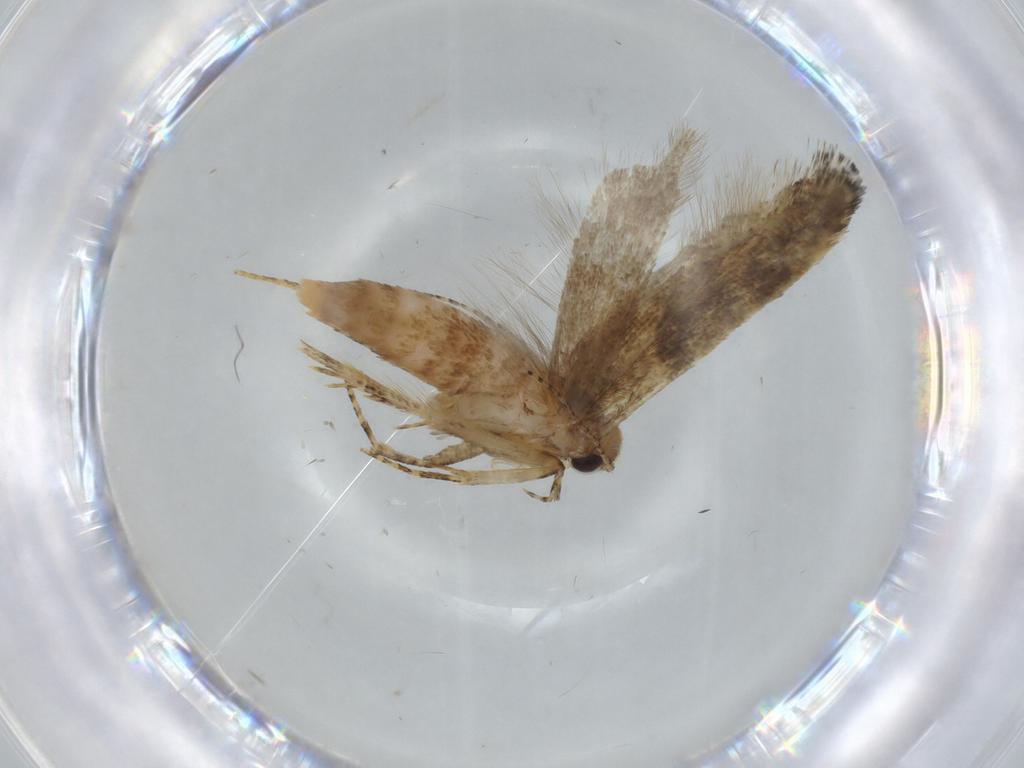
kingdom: Animalia
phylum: Arthropoda
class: Insecta
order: Lepidoptera
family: Gelechiidae
